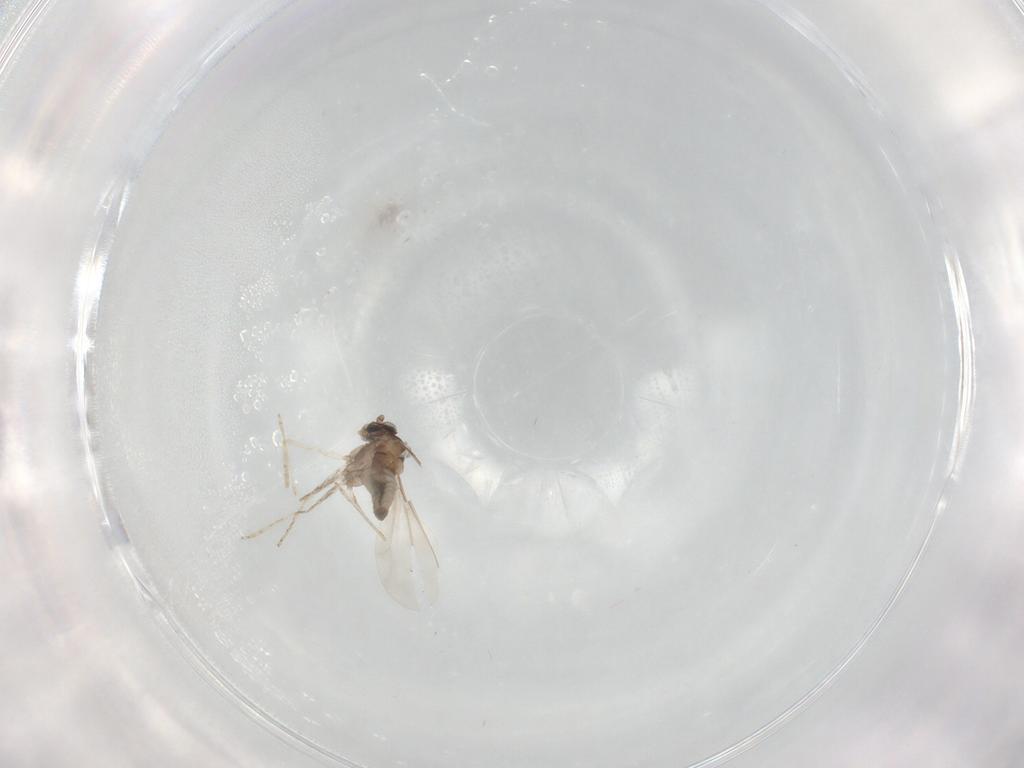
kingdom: Animalia
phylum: Arthropoda
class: Insecta
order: Diptera
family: Cecidomyiidae
